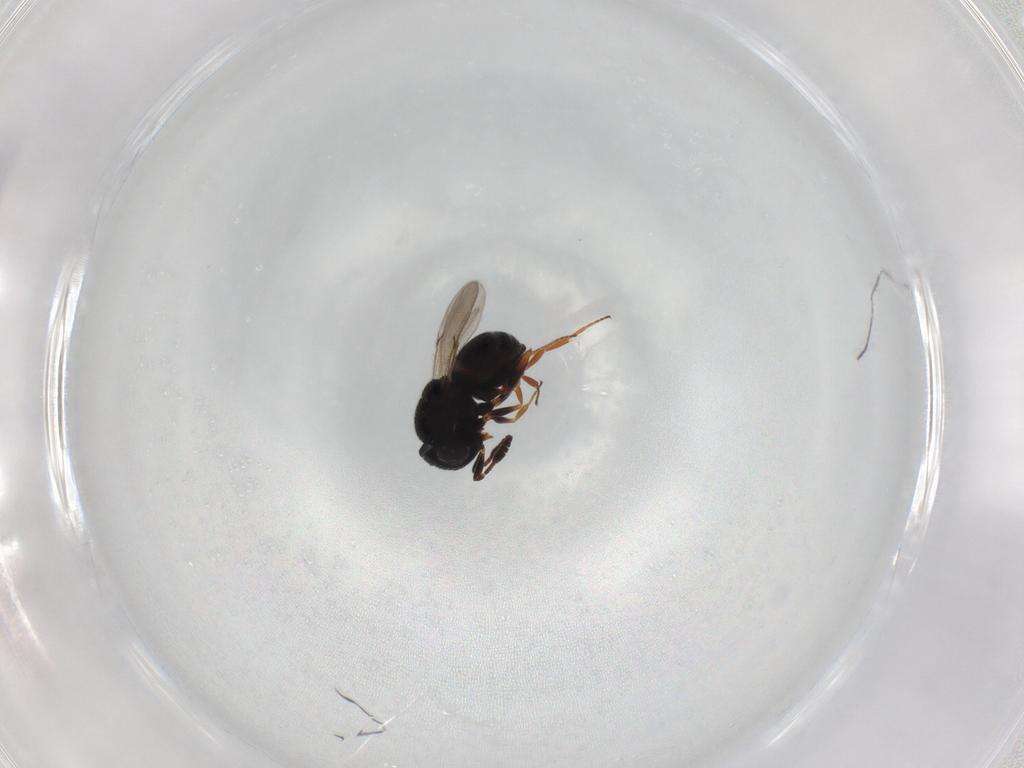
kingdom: Animalia
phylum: Arthropoda
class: Insecta
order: Hymenoptera
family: Scelionidae
